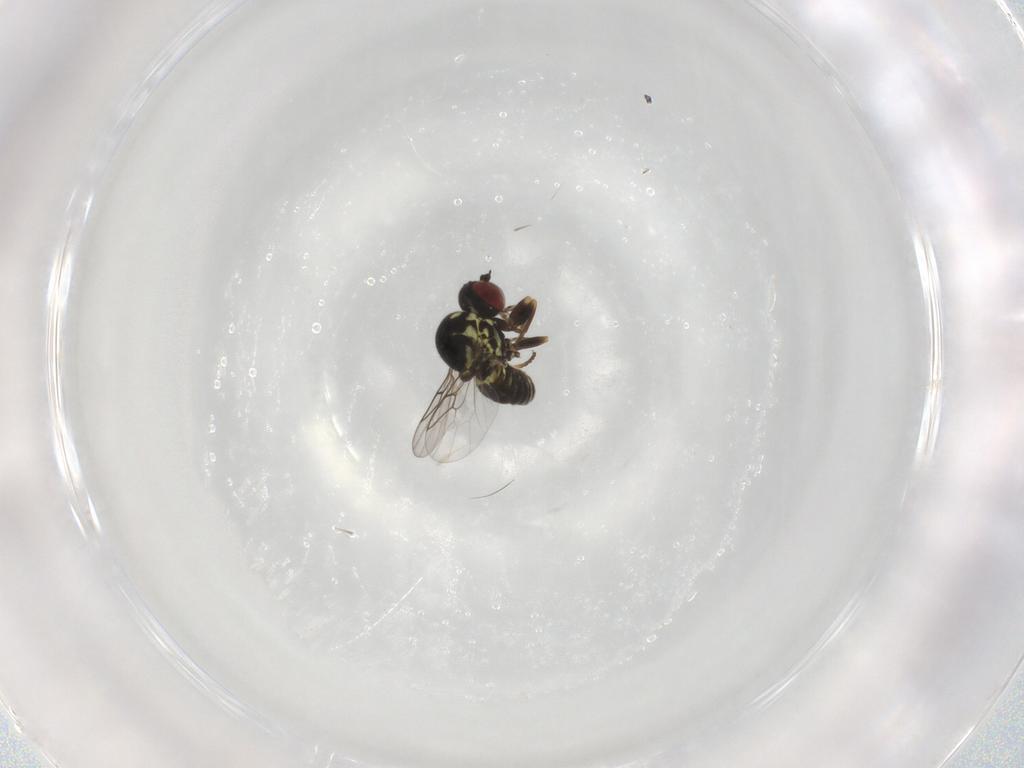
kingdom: Animalia
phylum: Arthropoda
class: Insecta
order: Diptera
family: Bombyliidae
